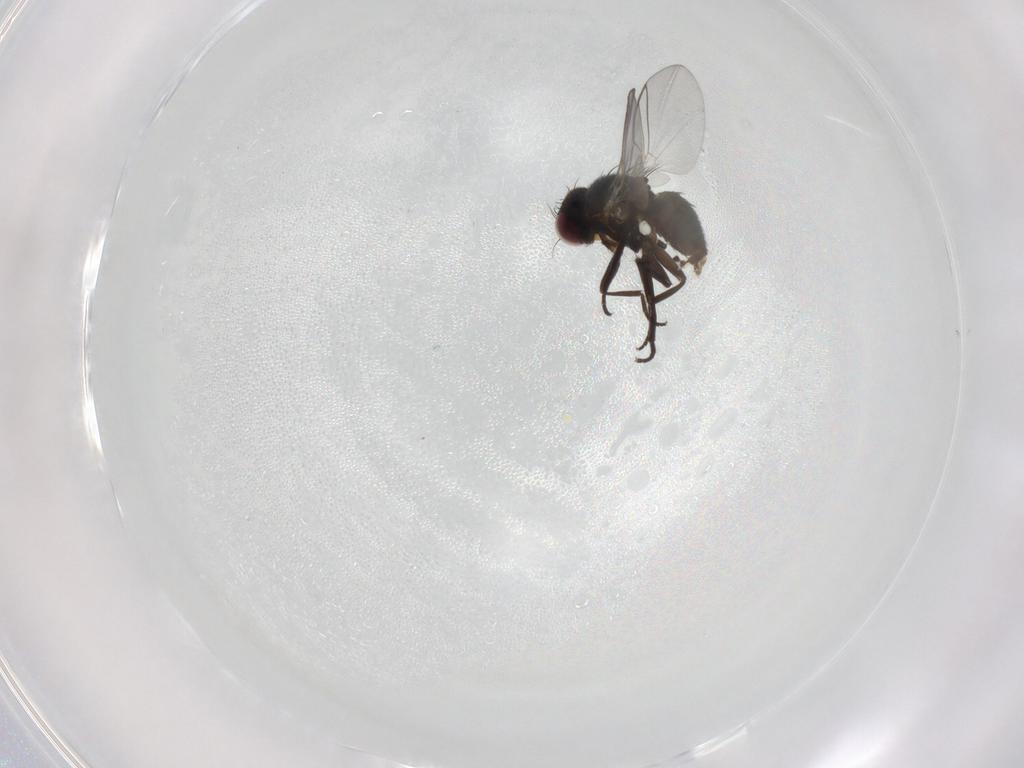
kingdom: Animalia
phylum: Arthropoda
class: Insecta
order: Diptera
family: Agromyzidae
